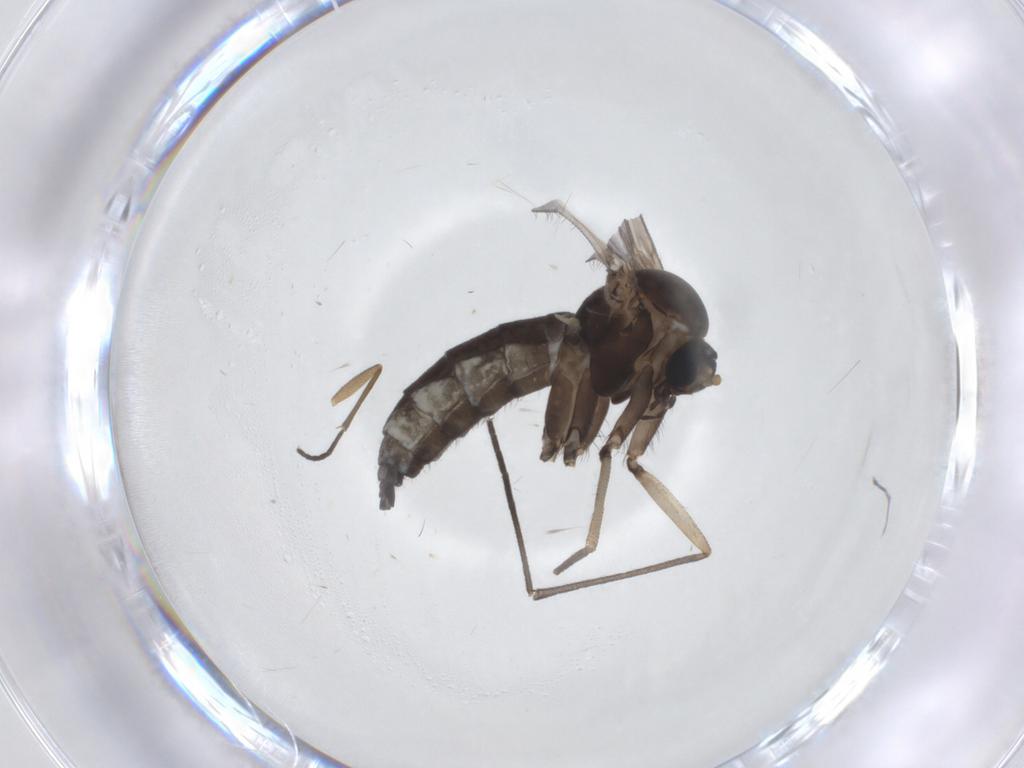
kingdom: Animalia
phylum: Arthropoda
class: Insecta
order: Diptera
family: Sciaridae
